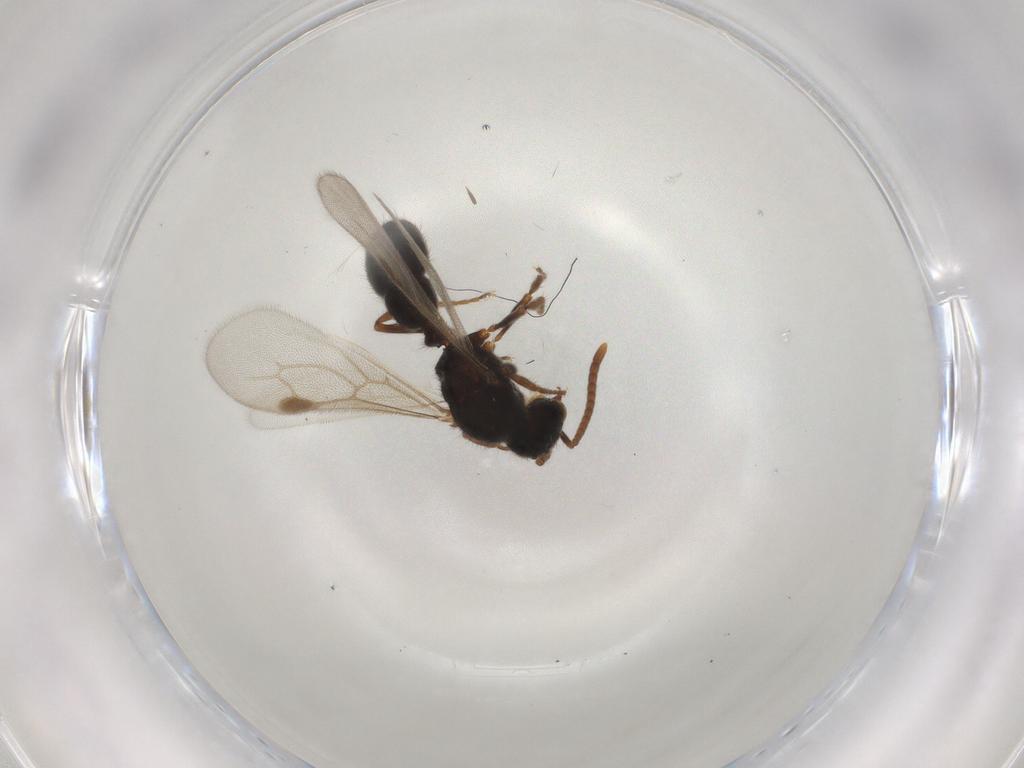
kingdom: Animalia
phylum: Arthropoda
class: Insecta
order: Hymenoptera
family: Formicidae
